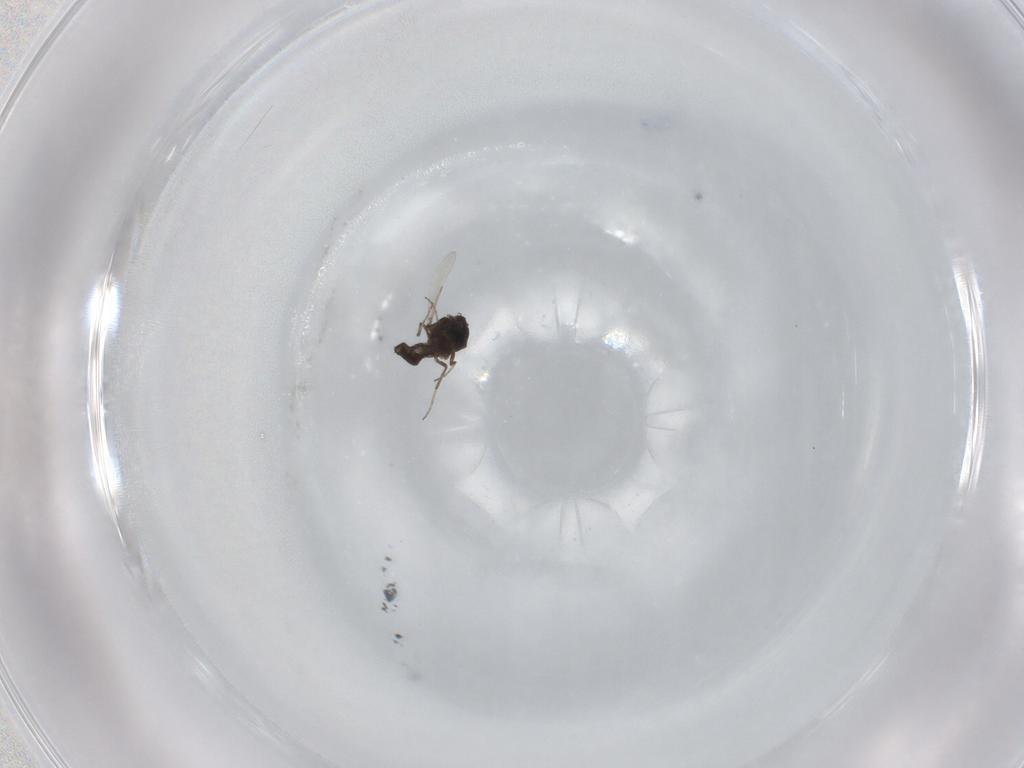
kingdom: Animalia
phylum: Arthropoda
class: Insecta
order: Diptera
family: Ceratopogonidae
